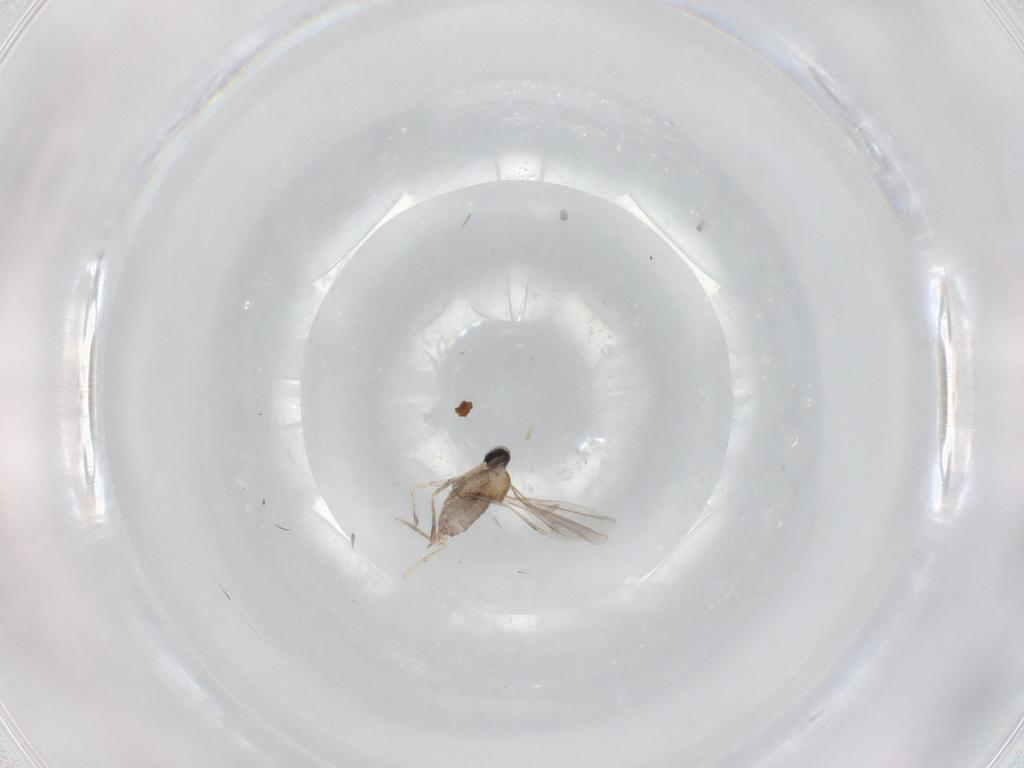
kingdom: Animalia
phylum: Arthropoda
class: Insecta
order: Diptera
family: Cecidomyiidae
